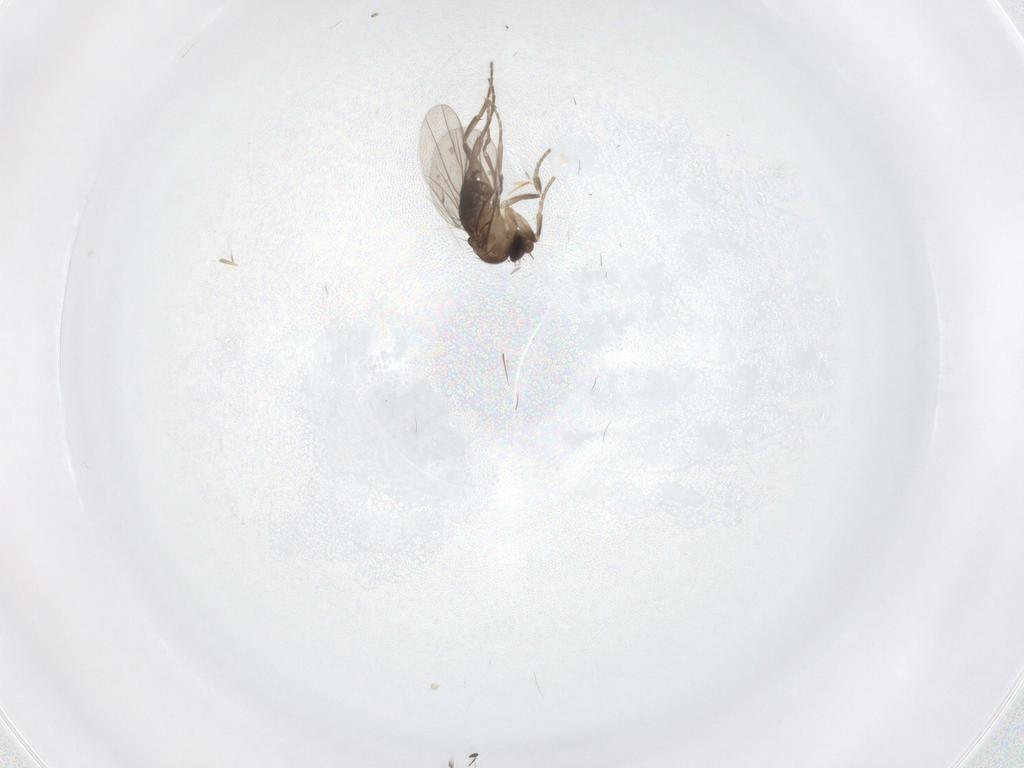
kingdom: Animalia
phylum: Arthropoda
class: Insecta
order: Diptera
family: Cecidomyiidae
